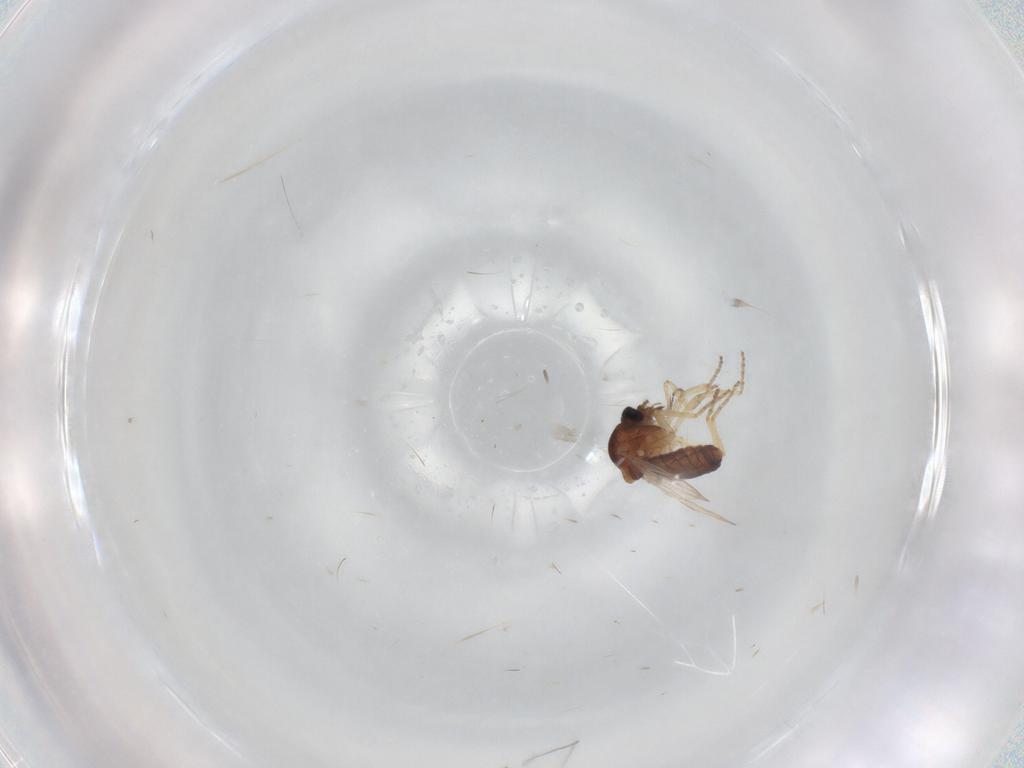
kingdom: Animalia
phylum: Arthropoda
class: Insecta
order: Diptera
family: Ceratopogonidae
